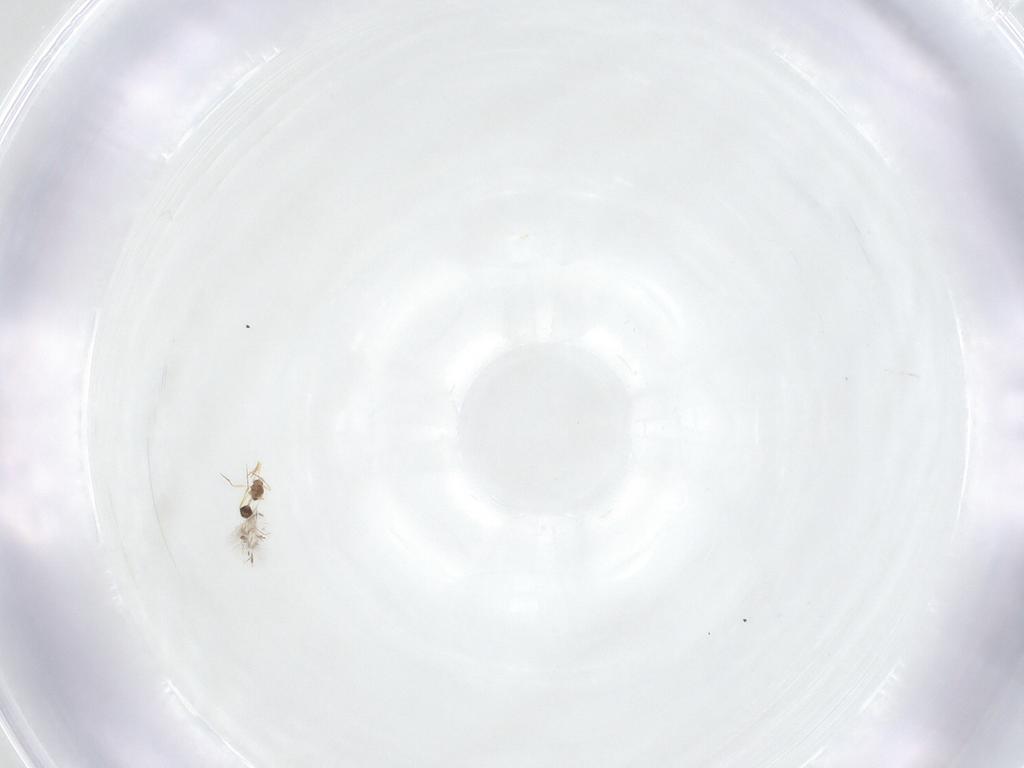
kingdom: Animalia
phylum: Arthropoda
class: Insecta
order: Hymenoptera
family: Mymarommatidae
